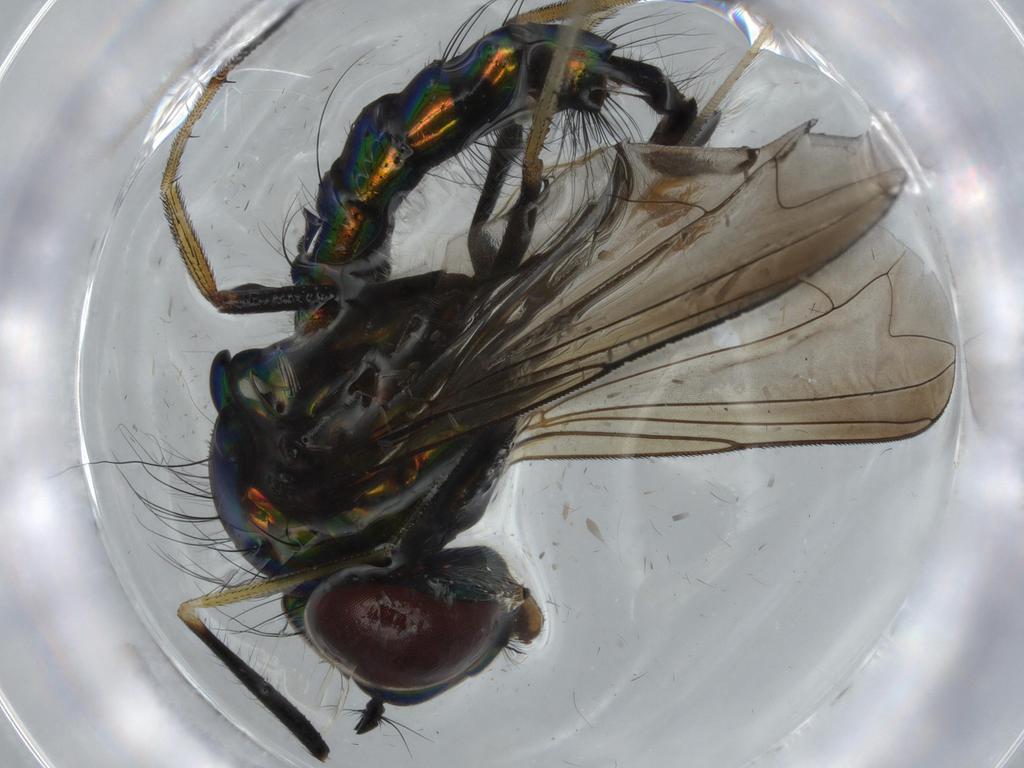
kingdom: Animalia
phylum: Arthropoda
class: Insecta
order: Diptera
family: Dolichopodidae
